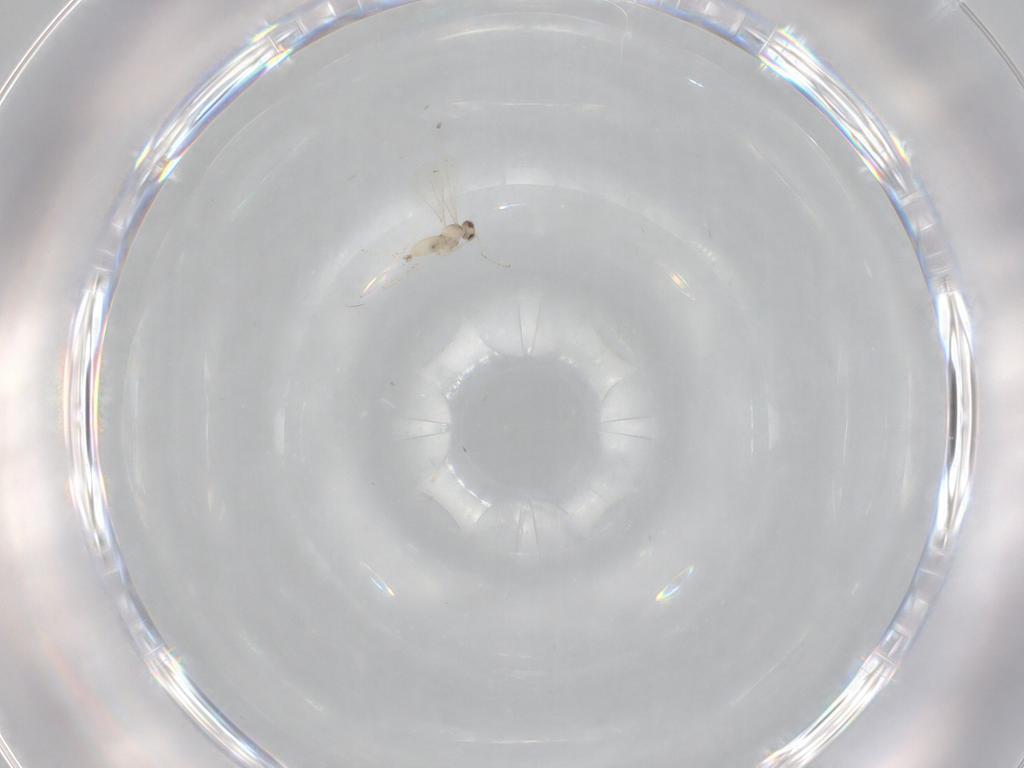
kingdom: Animalia
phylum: Arthropoda
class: Insecta
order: Diptera
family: Cecidomyiidae
